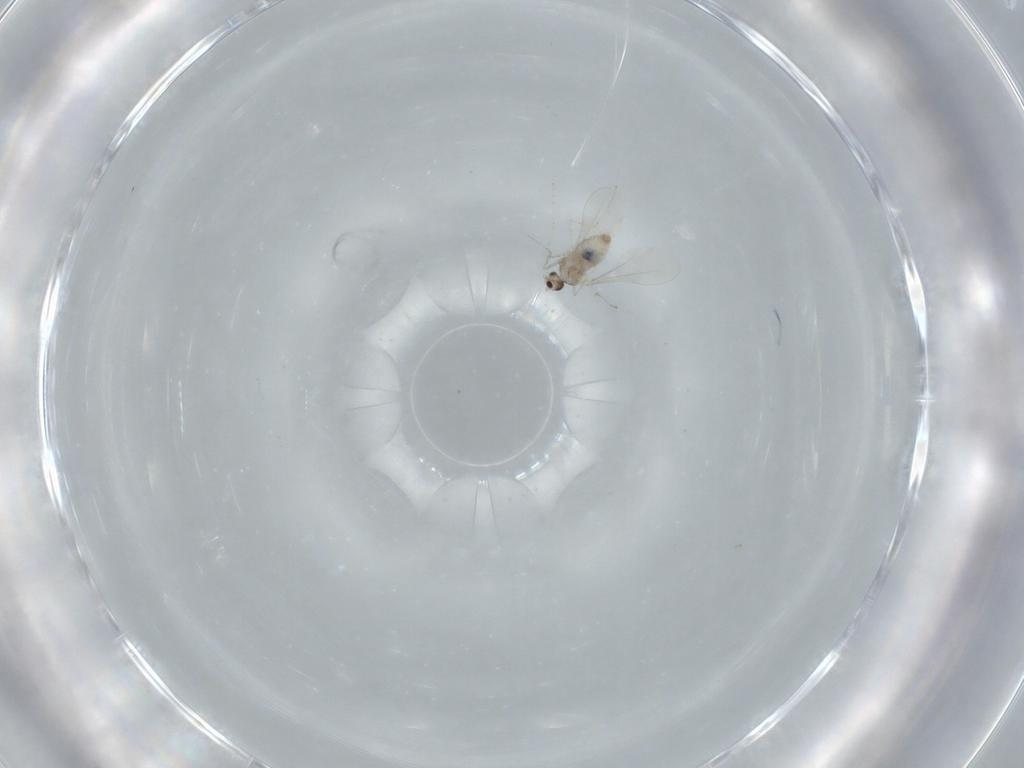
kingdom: Animalia
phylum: Arthropoda
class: Insecta
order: Diptera
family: Cecidomyiidae
